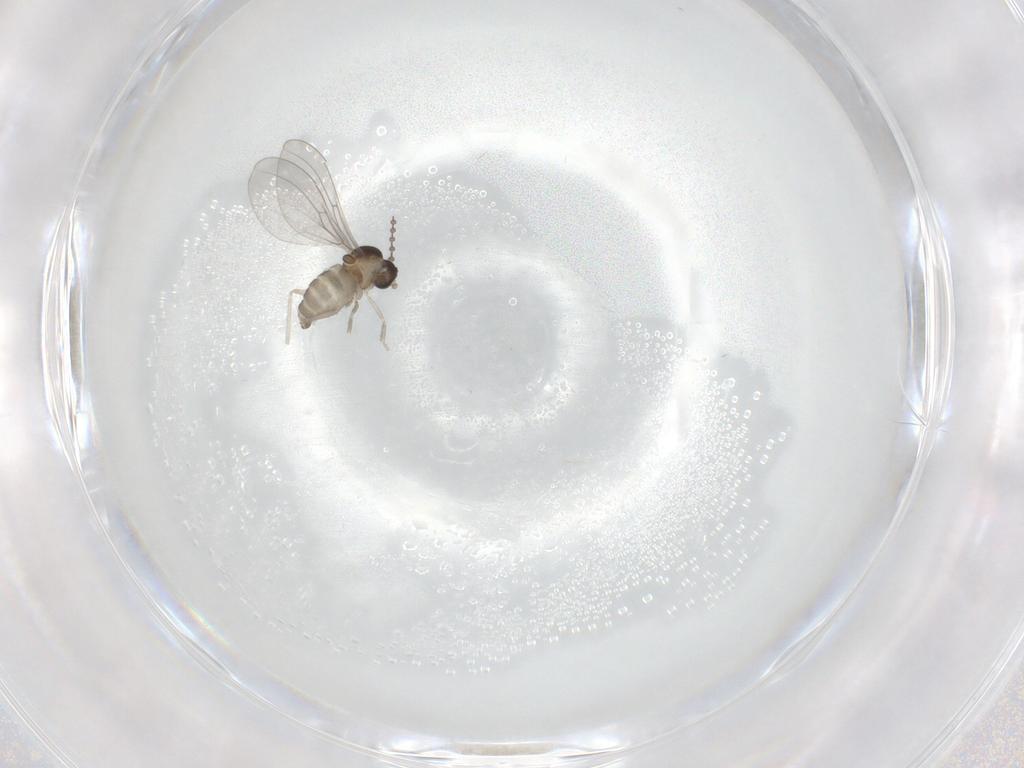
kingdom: Animalia
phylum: Arthropoda
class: Insecta
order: Diptera
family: Cecidomyiidae
